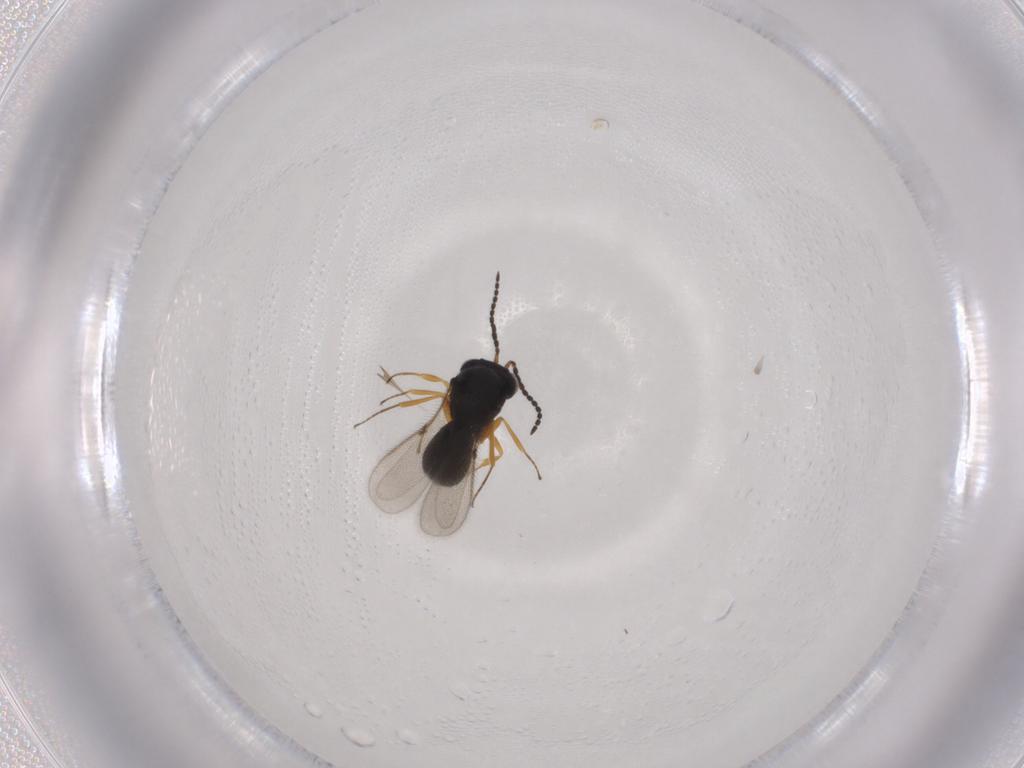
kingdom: Animalia
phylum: Arthropoda
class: Insecta
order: Hymenoptera
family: Scelionidae
